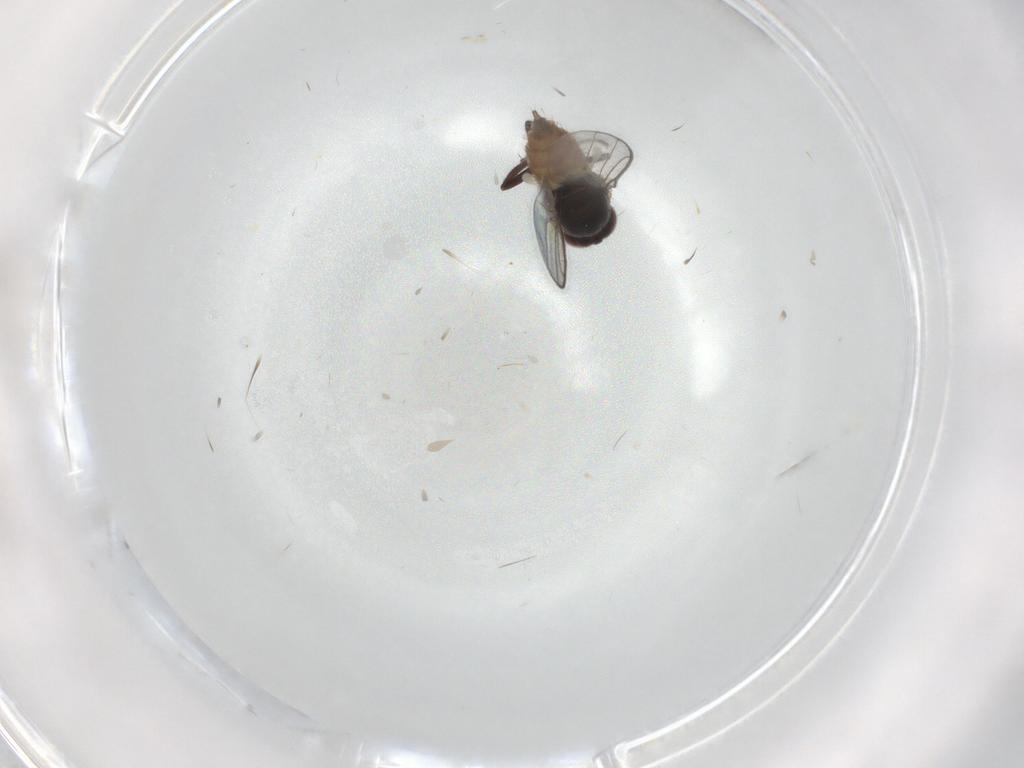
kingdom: Animalia
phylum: Arthropoda
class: Insecta
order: Diptera
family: Chloropidae
